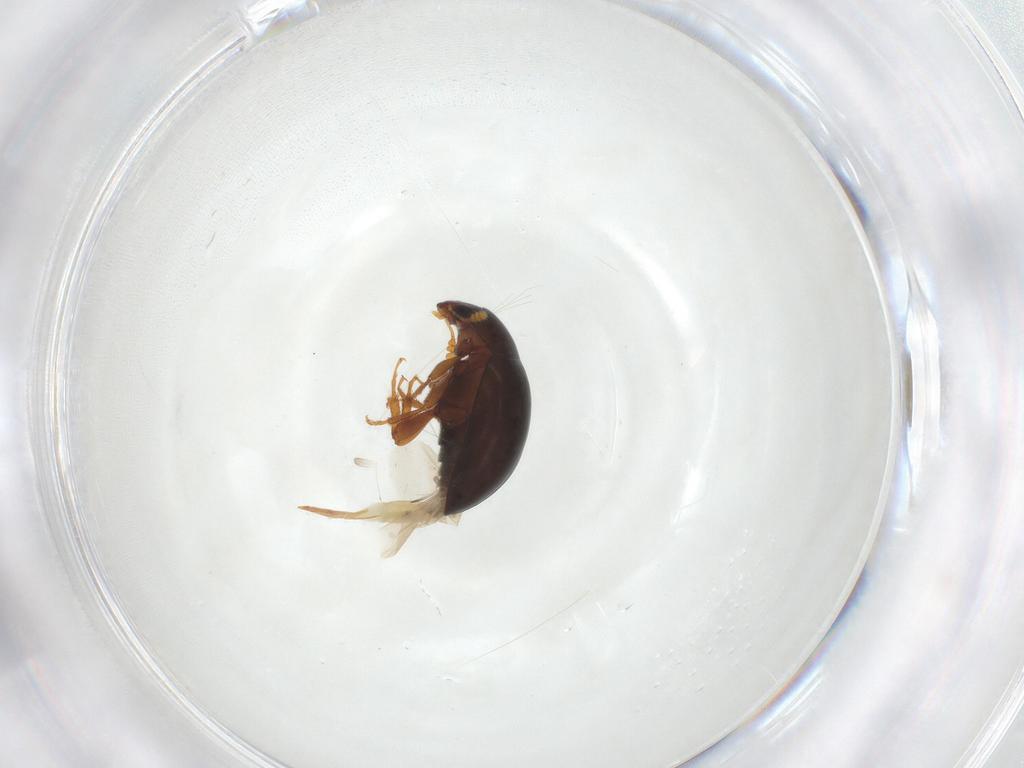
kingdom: Animalia
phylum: Arthropoda
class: Insecta
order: Coleoptera
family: Phalacridae
